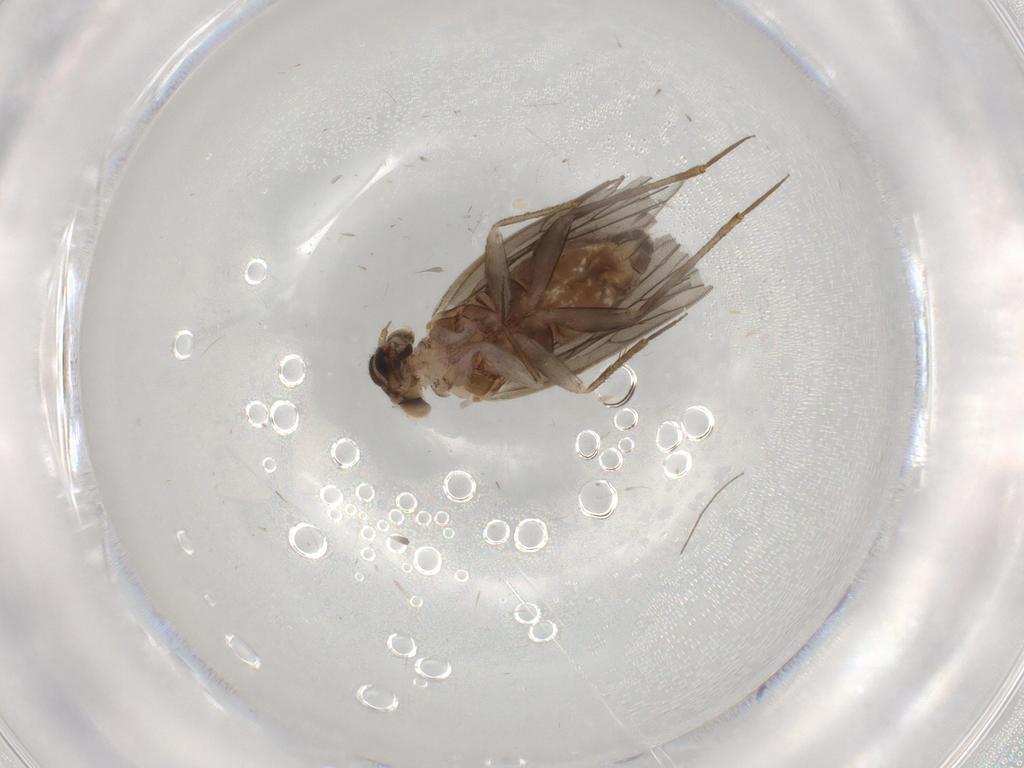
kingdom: Animalia
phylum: Arthropoda
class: Insecta
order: Psocodea
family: Lepidopsocidae
